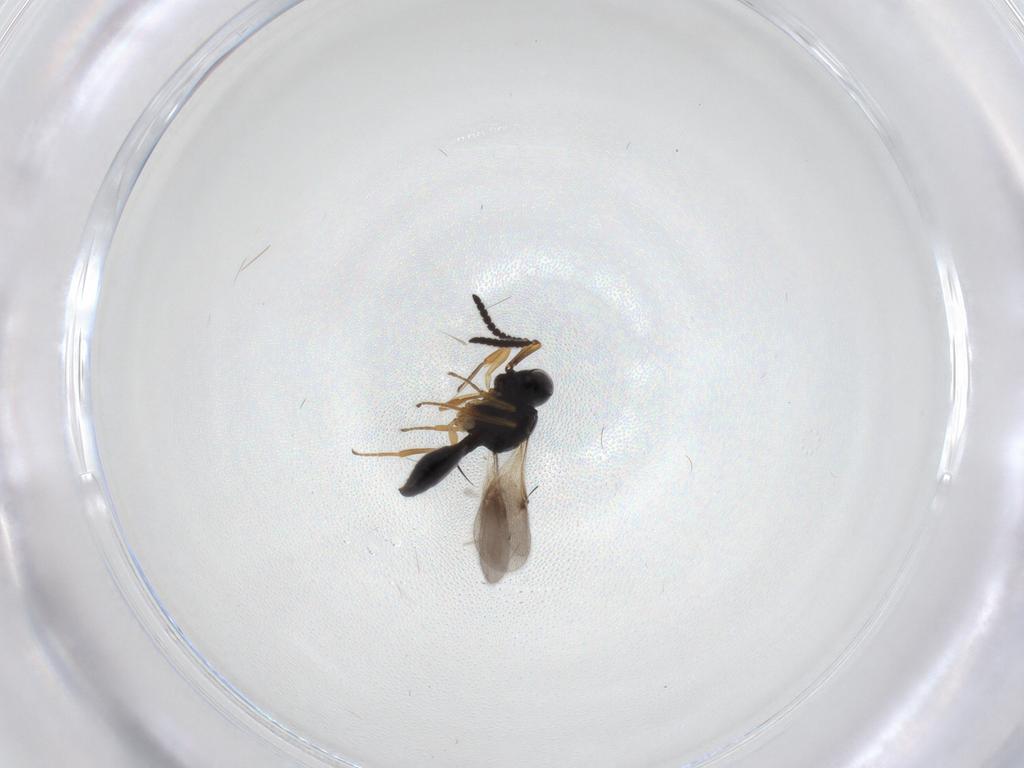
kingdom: Animalia
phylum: Arthropoda
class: Insecta
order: Hymenoptera
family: Scelionidae
